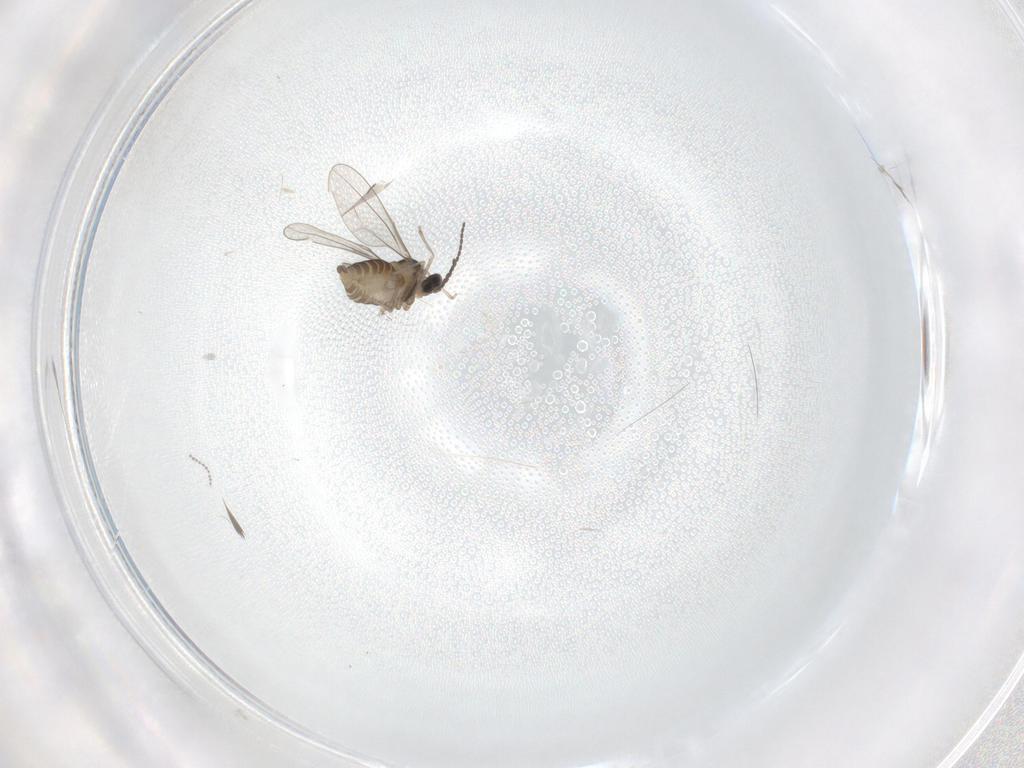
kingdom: Animalia
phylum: Arthropoda
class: Insecta
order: Diptera
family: Cecidomyiidae
